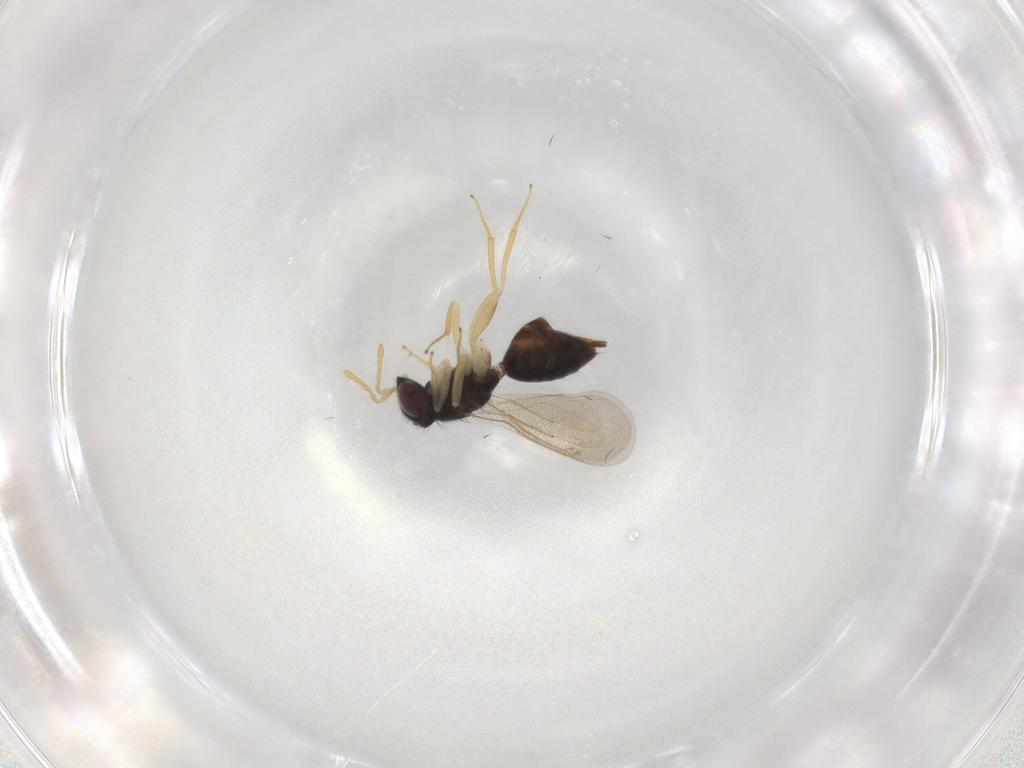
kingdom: Animalia
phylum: Arthropoda
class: Insecta
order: Hymenoptera
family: Eulophidae
